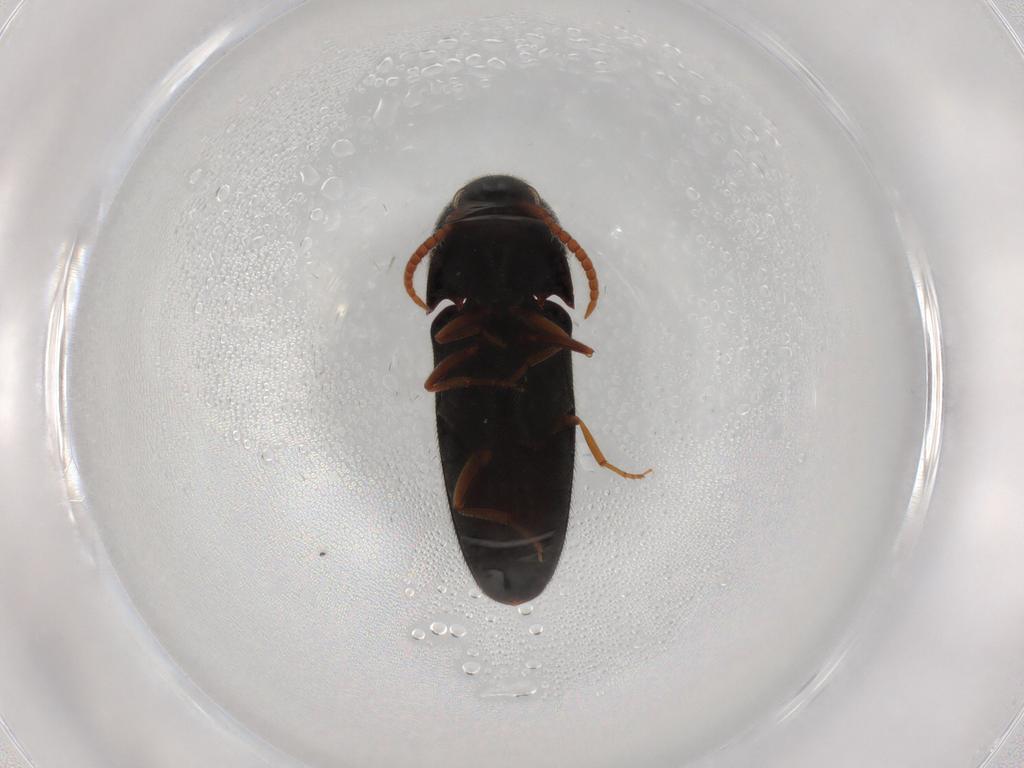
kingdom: Animalia
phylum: Arthropoda
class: Insecta
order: Coleoptera
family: Eucnemidae
